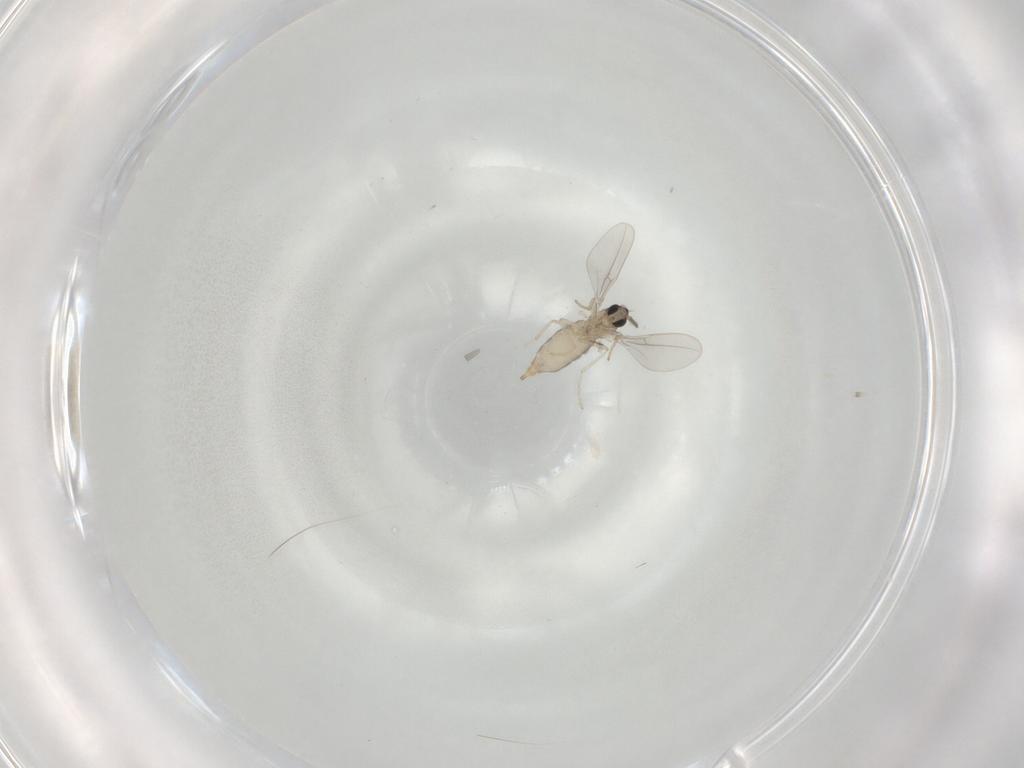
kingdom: Animalia
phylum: Arthropoda
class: Insecta
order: Diptera
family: Cecidomyiidae
